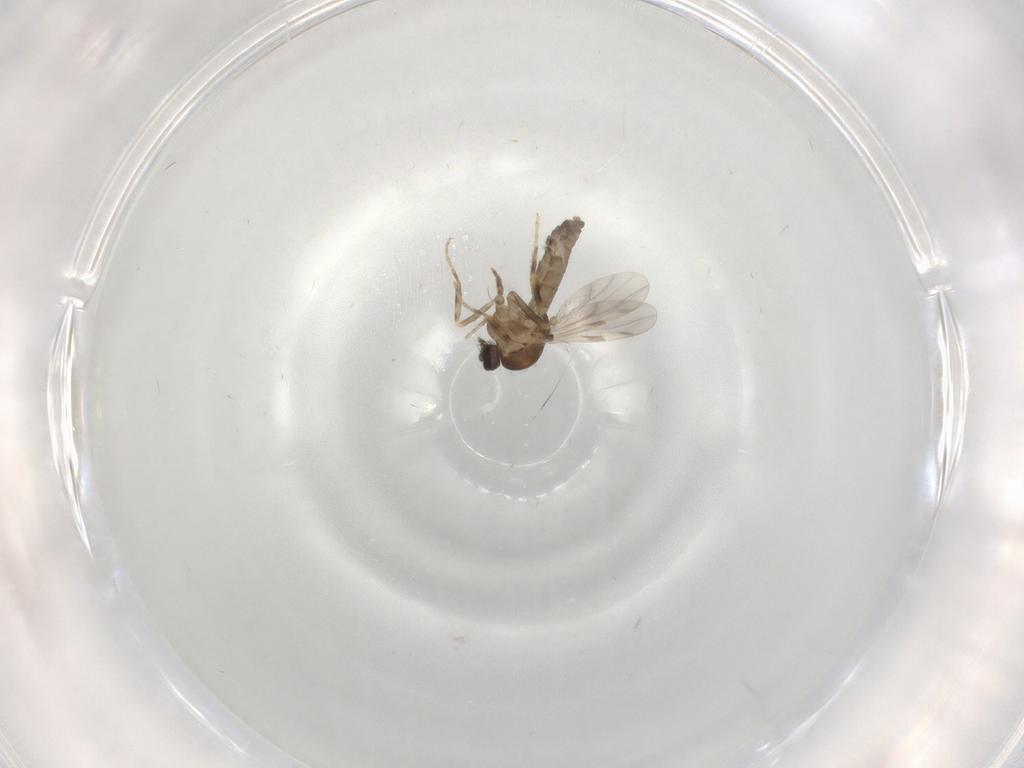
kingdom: Animalia
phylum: Arthropoda
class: Insecta
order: Diptera
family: Ceratopogonidae
